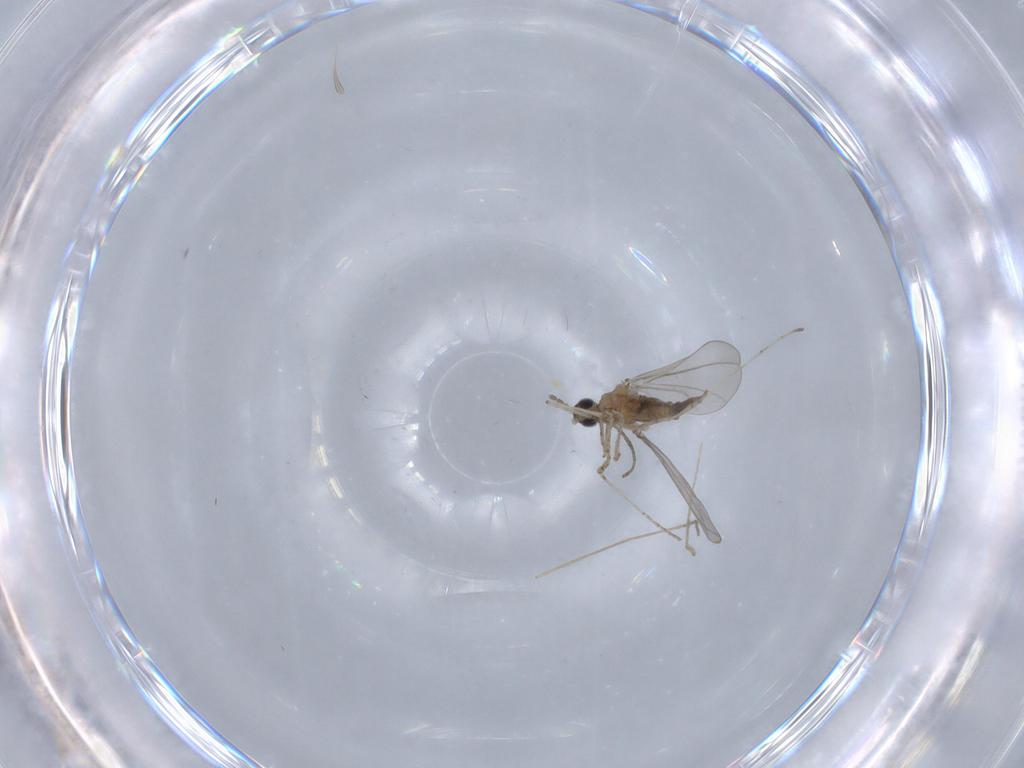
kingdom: Animalia
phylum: Arthropoda
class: Insecta
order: Diptera
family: Cecidomyiidae
